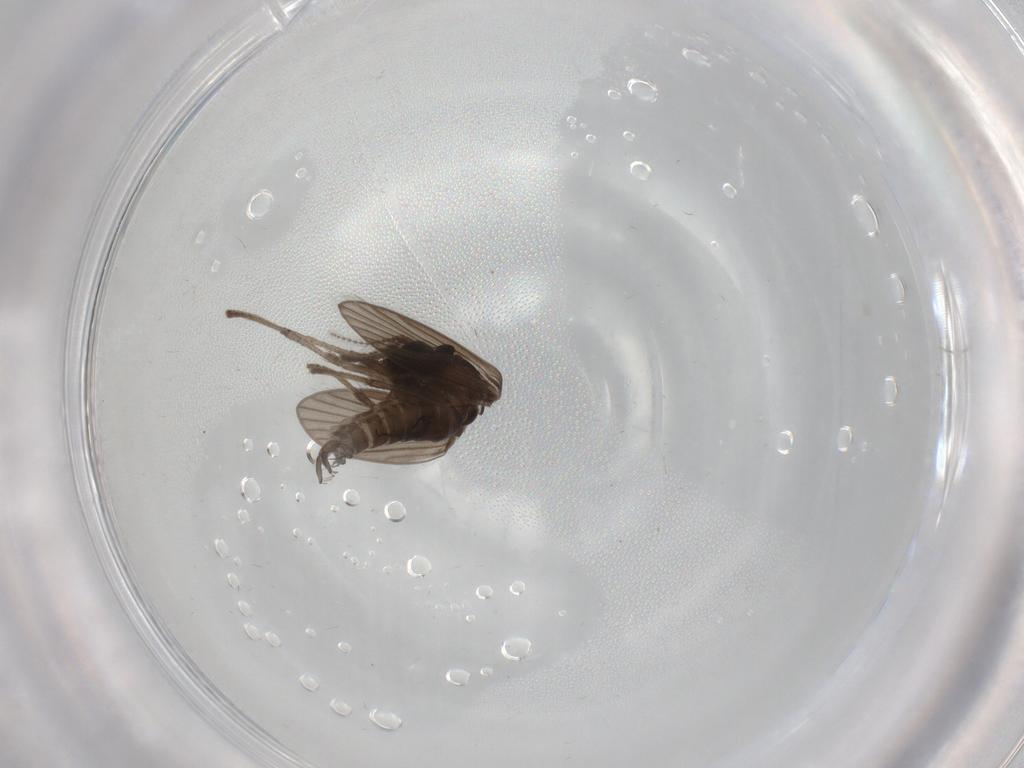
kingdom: Animalia
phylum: Arthropoda
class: Insecta
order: Diptera
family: Psychodidae
